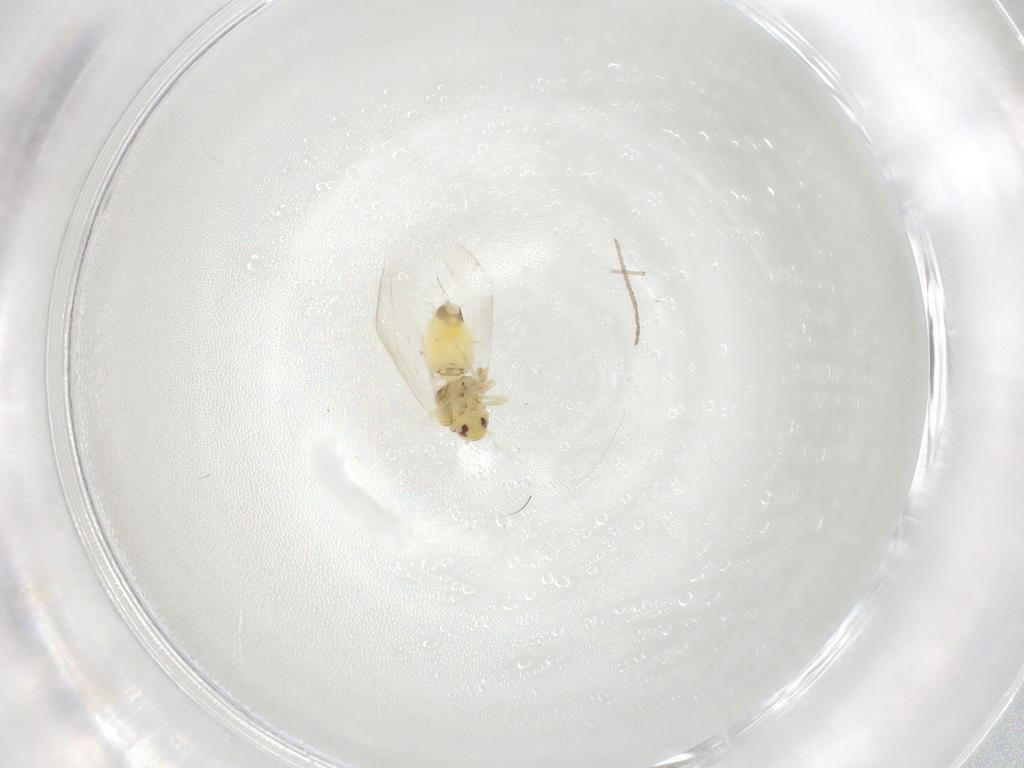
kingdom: Animalia
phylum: Arthropoda
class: Insecta
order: Hemiptera
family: Aleyrodidae
